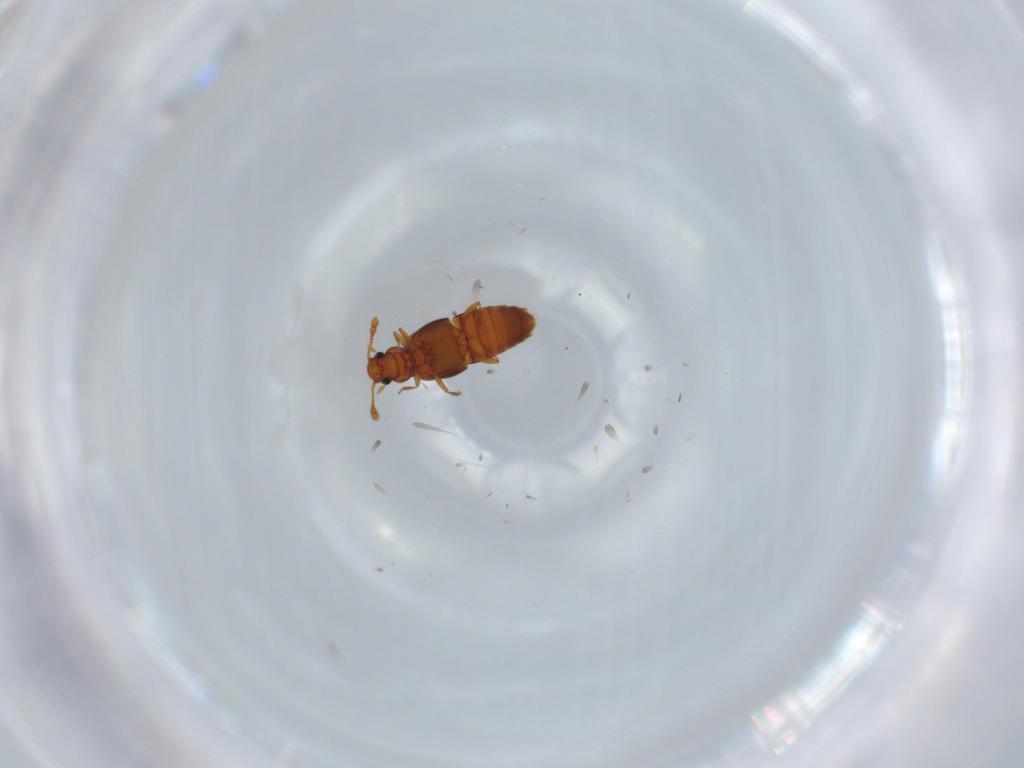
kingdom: Animalia
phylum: Arthropoda
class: Insecta
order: Coleoptera
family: Staphylinidae
